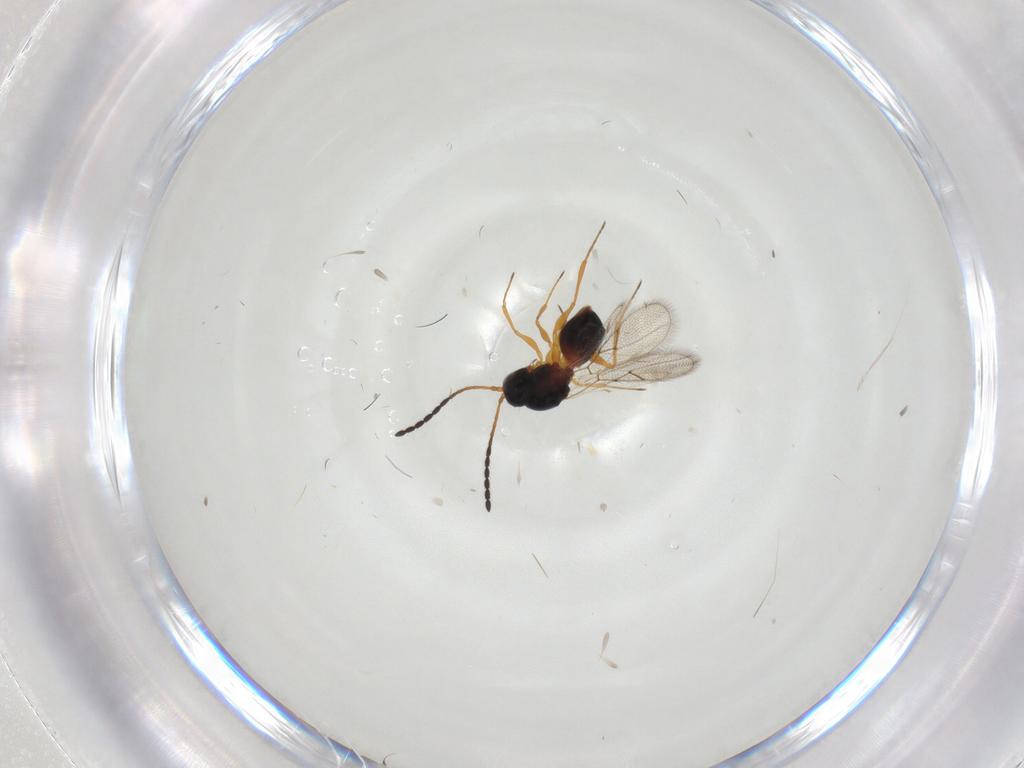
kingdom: Animalia
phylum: Arthropoda
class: Insecta
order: Hymenoptera
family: Figitidae
